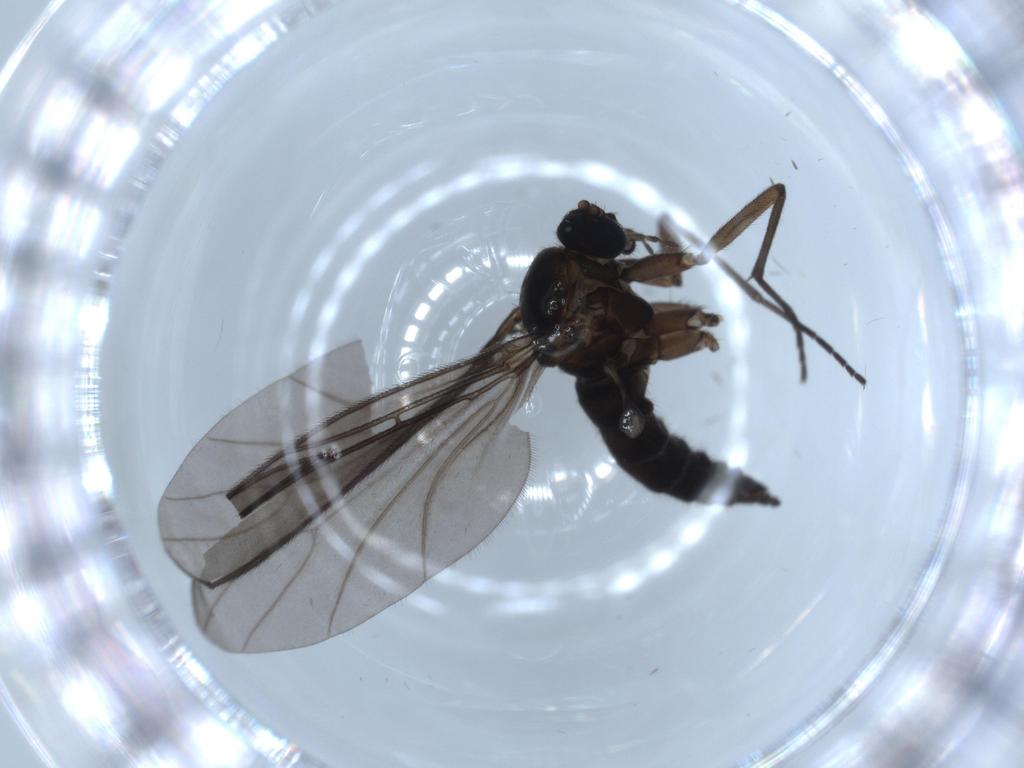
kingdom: Animalia
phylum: Arthropoda
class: Insecta
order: Diptera
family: Sciaridae
